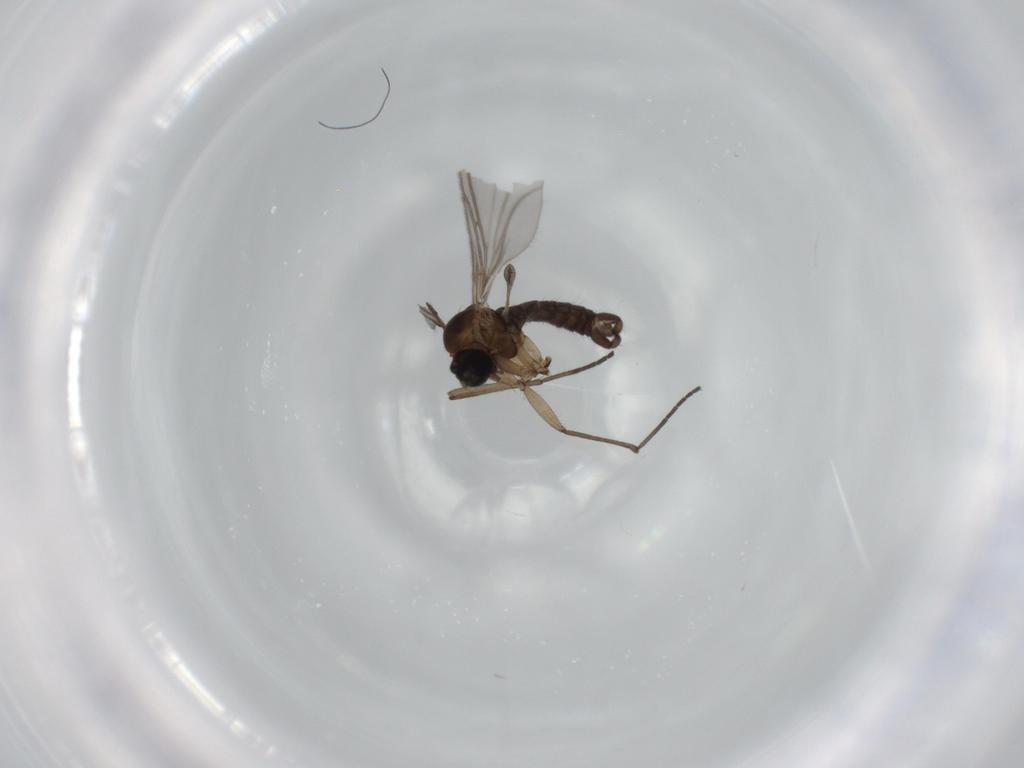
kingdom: Animalia
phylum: Arthropoda
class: Insecta
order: Diptera
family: Sciaridae
